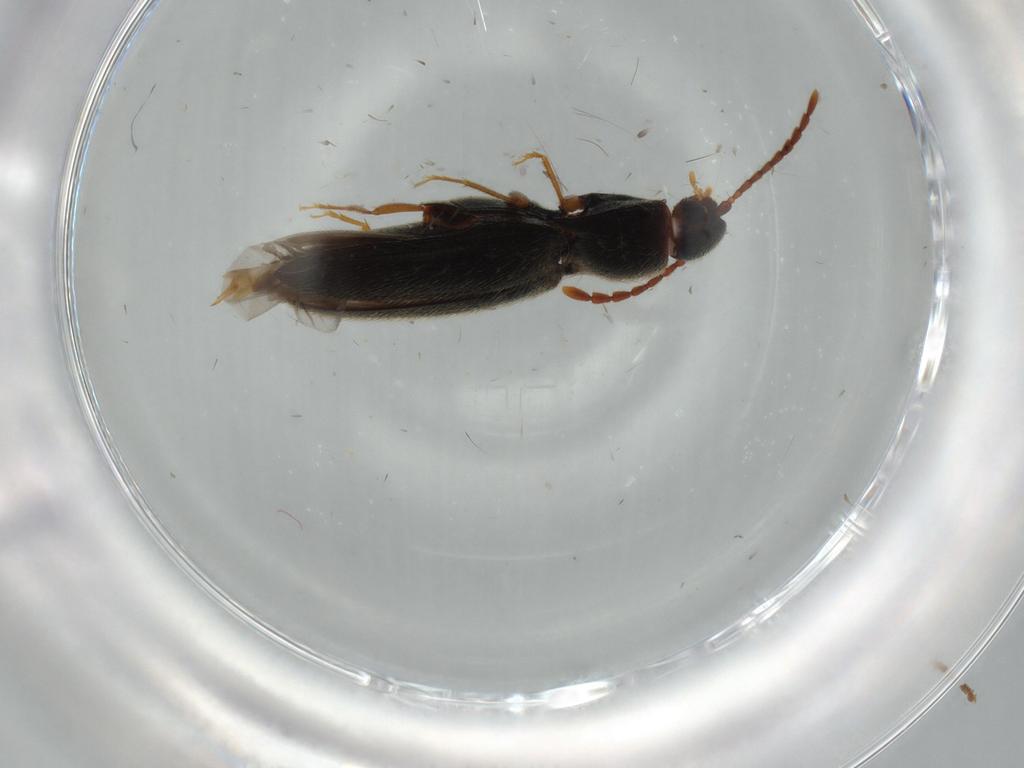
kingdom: Animalia
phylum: Arthropoda
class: Insecta
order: Coleoptera
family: Elateridae
